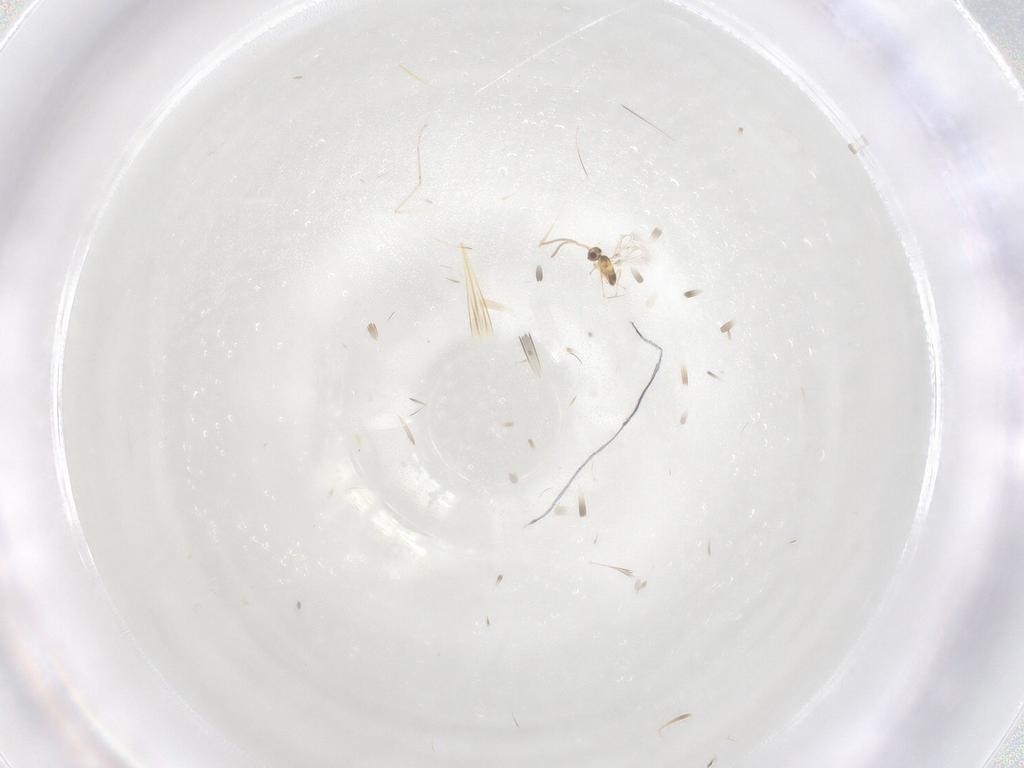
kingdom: Animalia
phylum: Arthropoda
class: Insecta
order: Hymenoptera
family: Mymaridae
